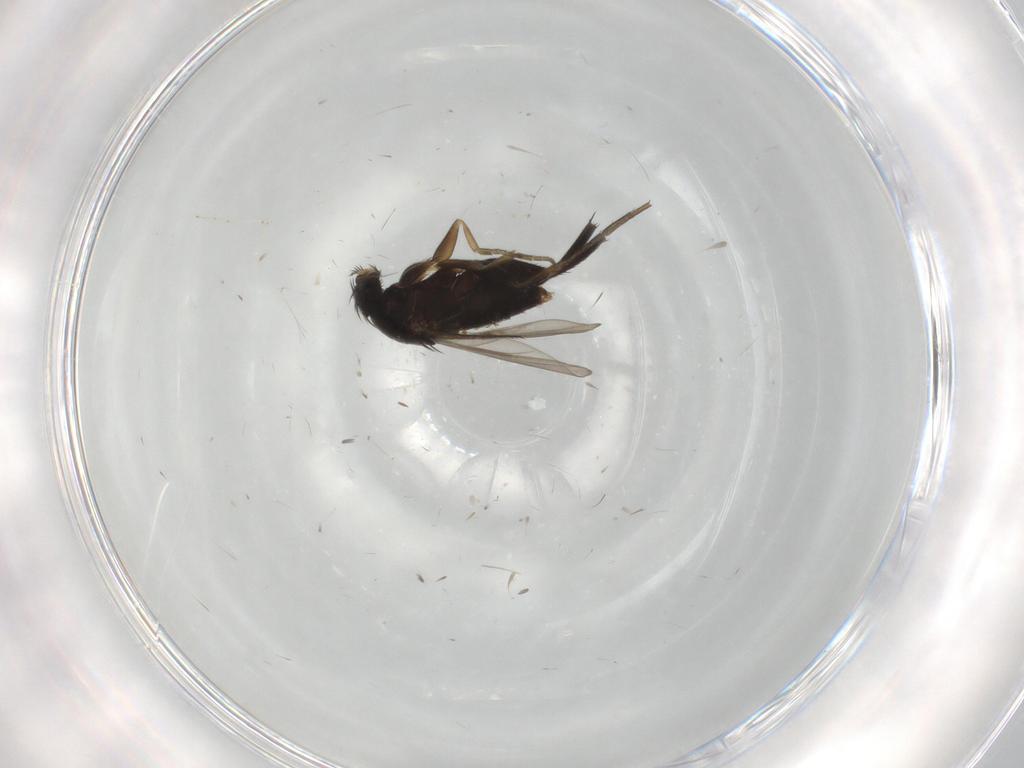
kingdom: Animalia
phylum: Arthropoda
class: Insecta
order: Diptera
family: Phoridae
